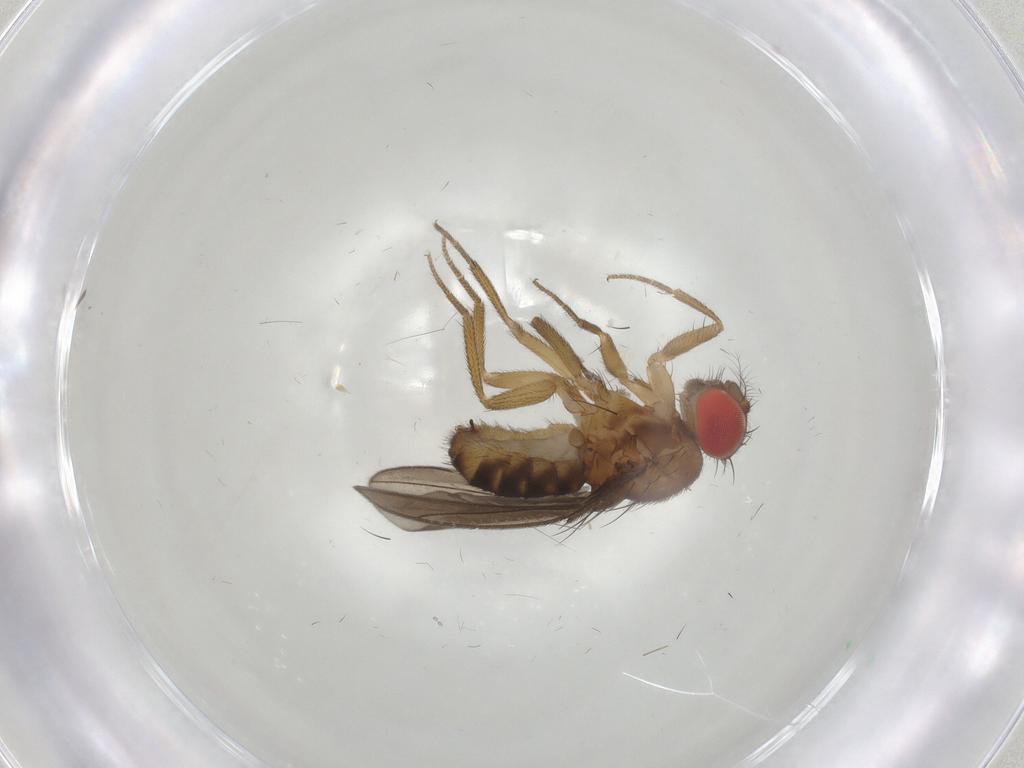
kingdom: Animalia
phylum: Arthropoda
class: Insecta
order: Diptera
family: Drosophilidae
